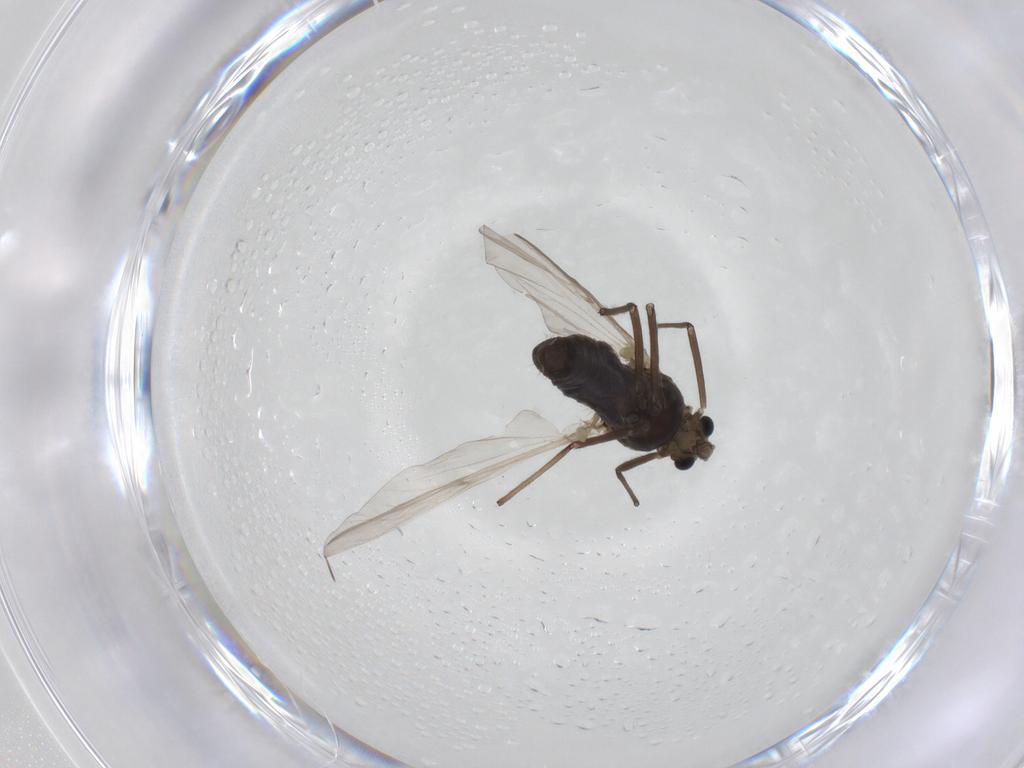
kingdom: Animalia
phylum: Arthropoda
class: Insecta
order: Diptera
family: Chironomidae
